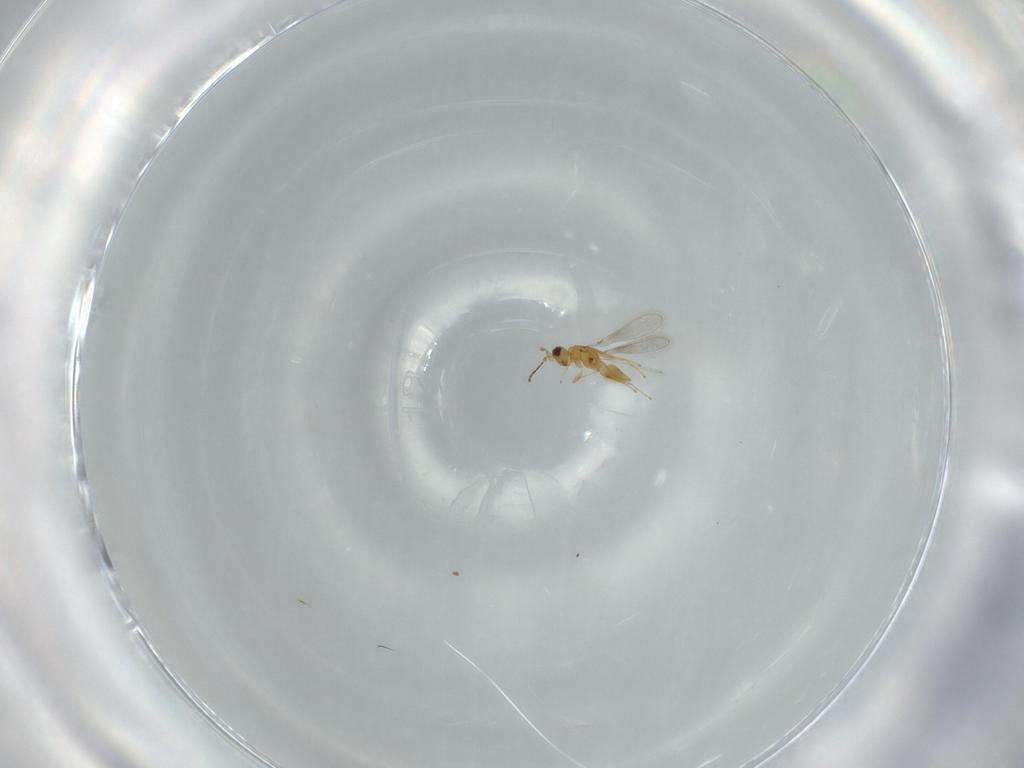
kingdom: Animalia
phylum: Arthropoda
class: Insecta
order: Hymenoptera
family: Mymaridae
